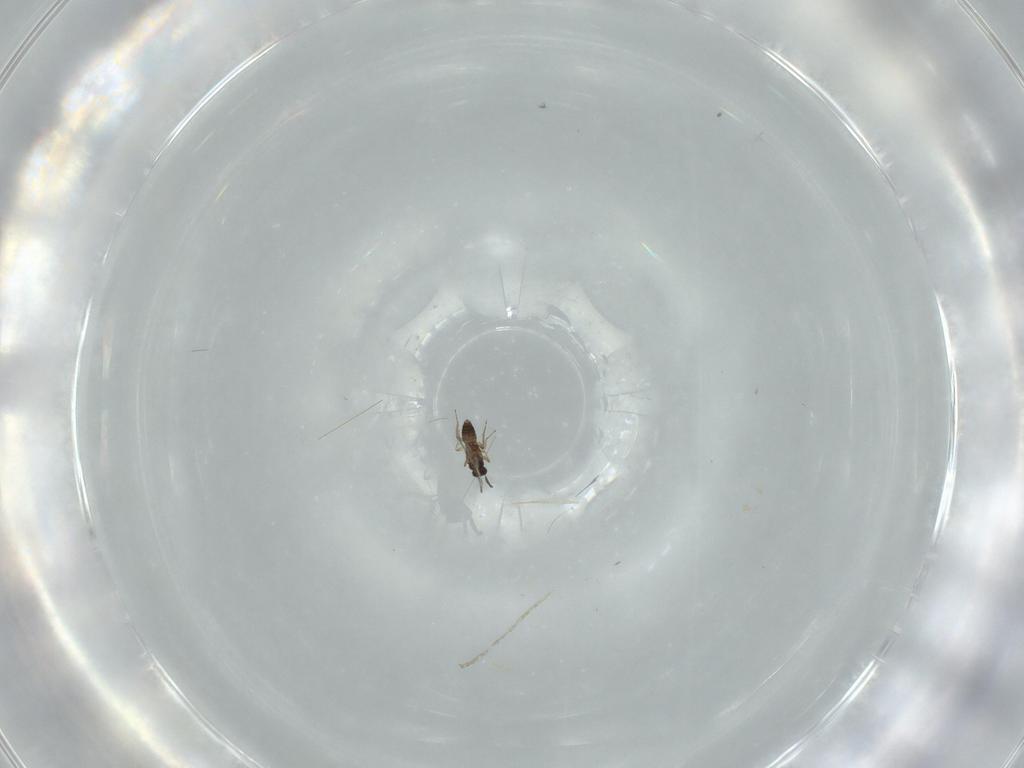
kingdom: Animalia
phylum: Arthropoda
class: Insecta
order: Hymenoptera
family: Mymaridae
